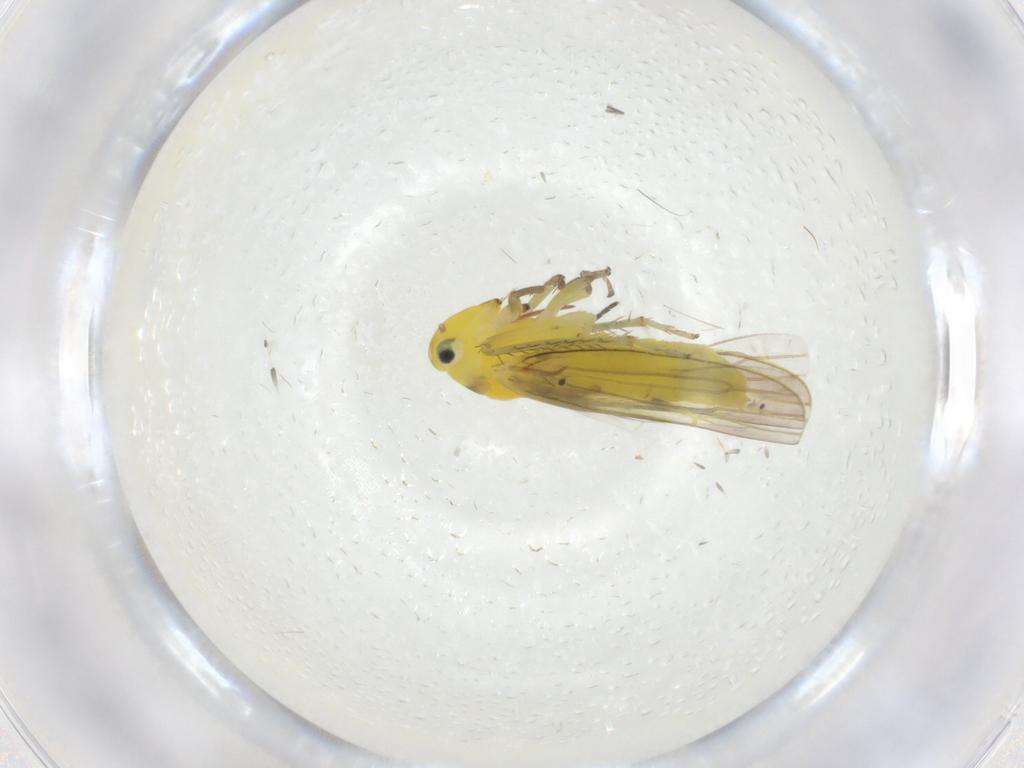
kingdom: Animalia
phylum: Arthropoda
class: Insecta
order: Hemiptera
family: Cicadellidae
